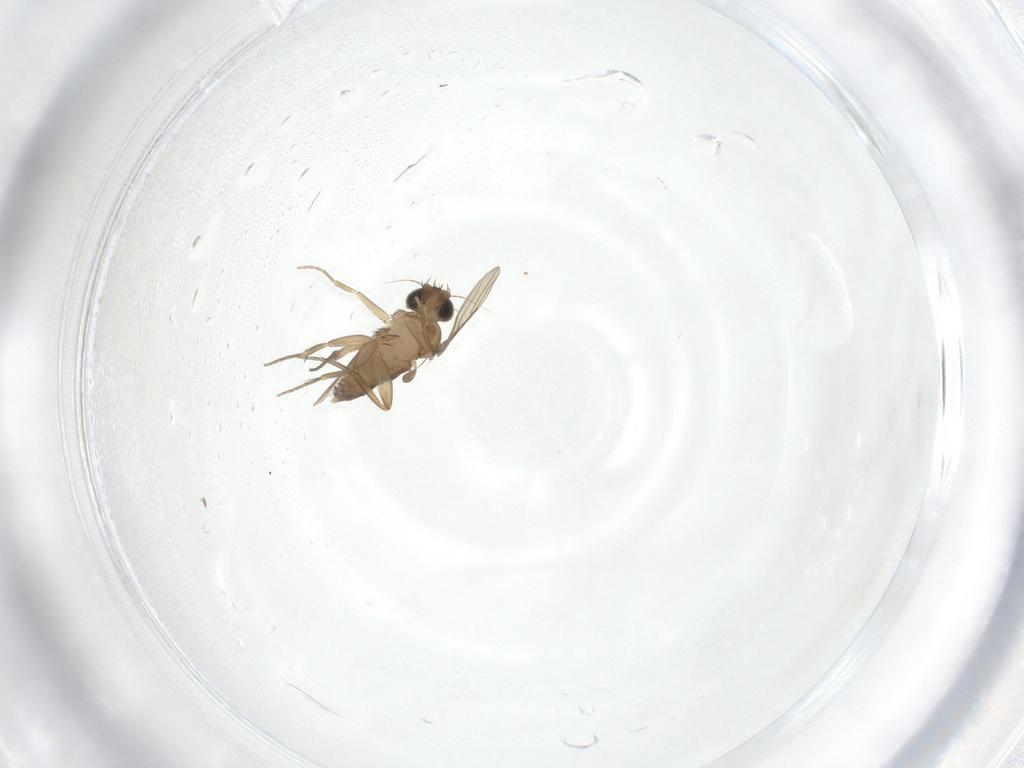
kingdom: Animalia
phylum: Arthropoda
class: Insecta
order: Diptera
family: Phoridae
